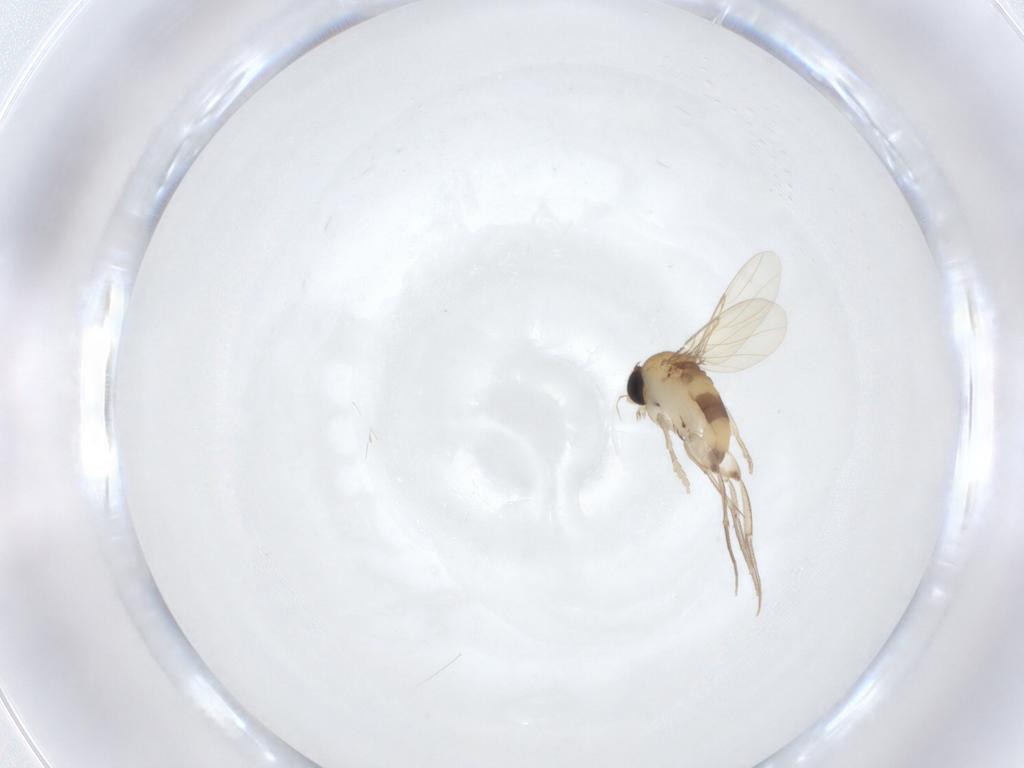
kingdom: Animalia
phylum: Arthropoda
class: Insecta
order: Diptera
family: Phoridae
